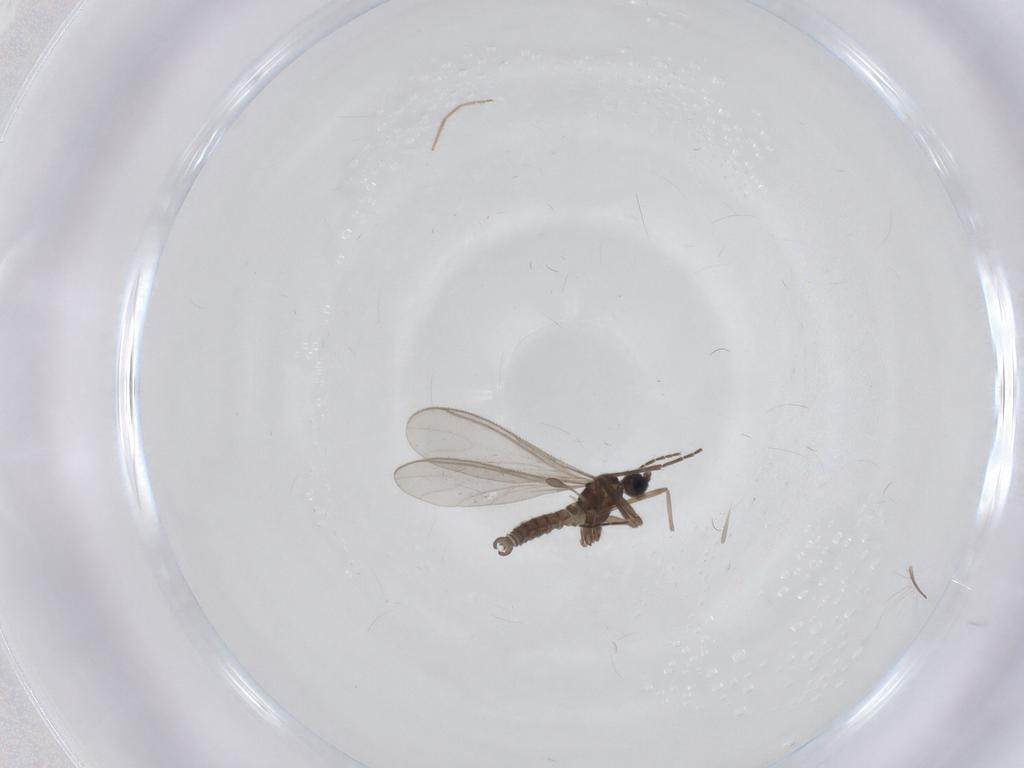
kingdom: Animalia
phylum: Arthropoda
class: Insecta
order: Diptera
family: Chironomidae
